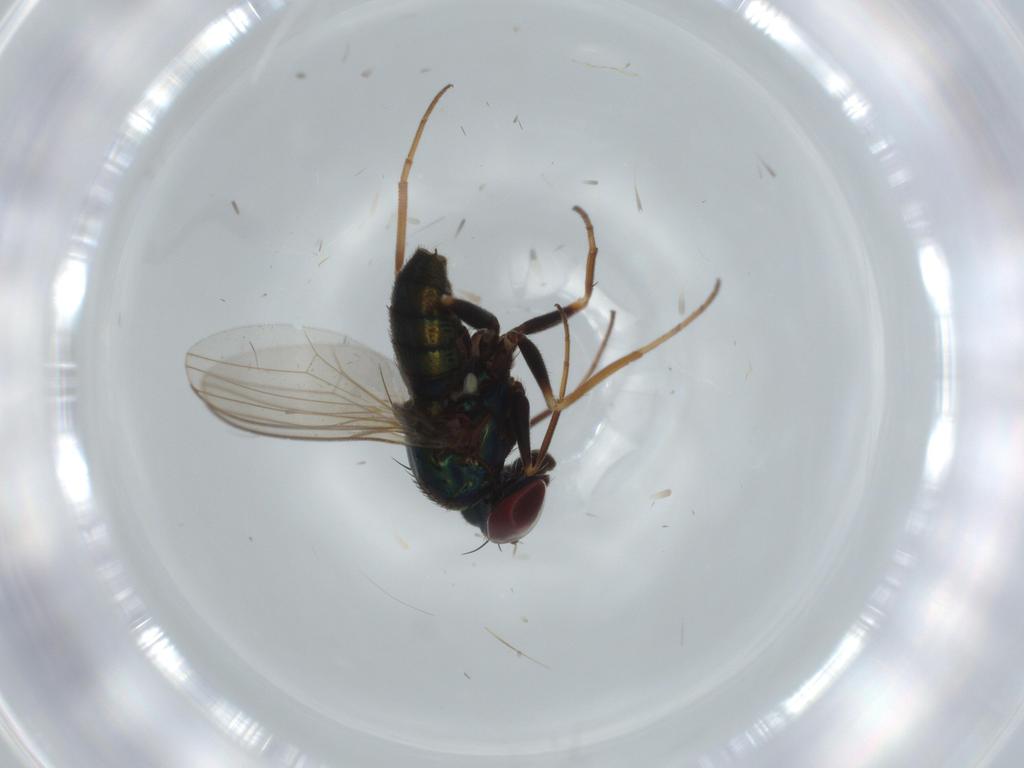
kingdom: Animalia
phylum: Arthropoda
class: Insecta
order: Diptera
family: Dolichopodidae
